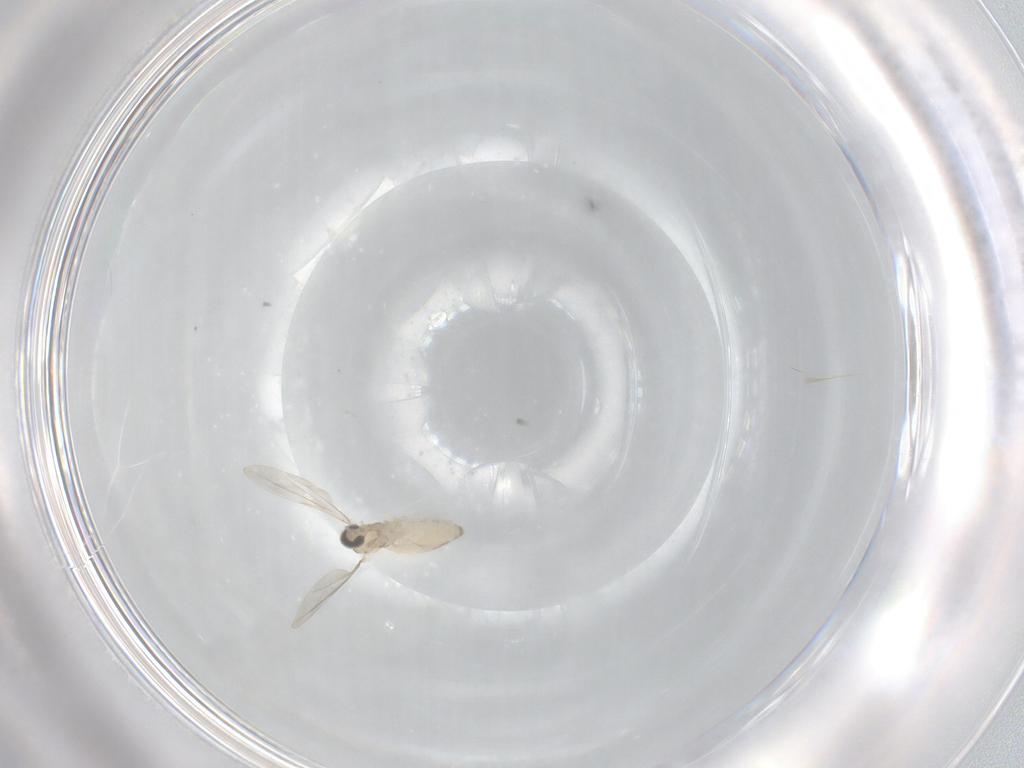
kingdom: Animalia
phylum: Arthropoda
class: Insecta
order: Diptera
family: Cecidomyiidae
